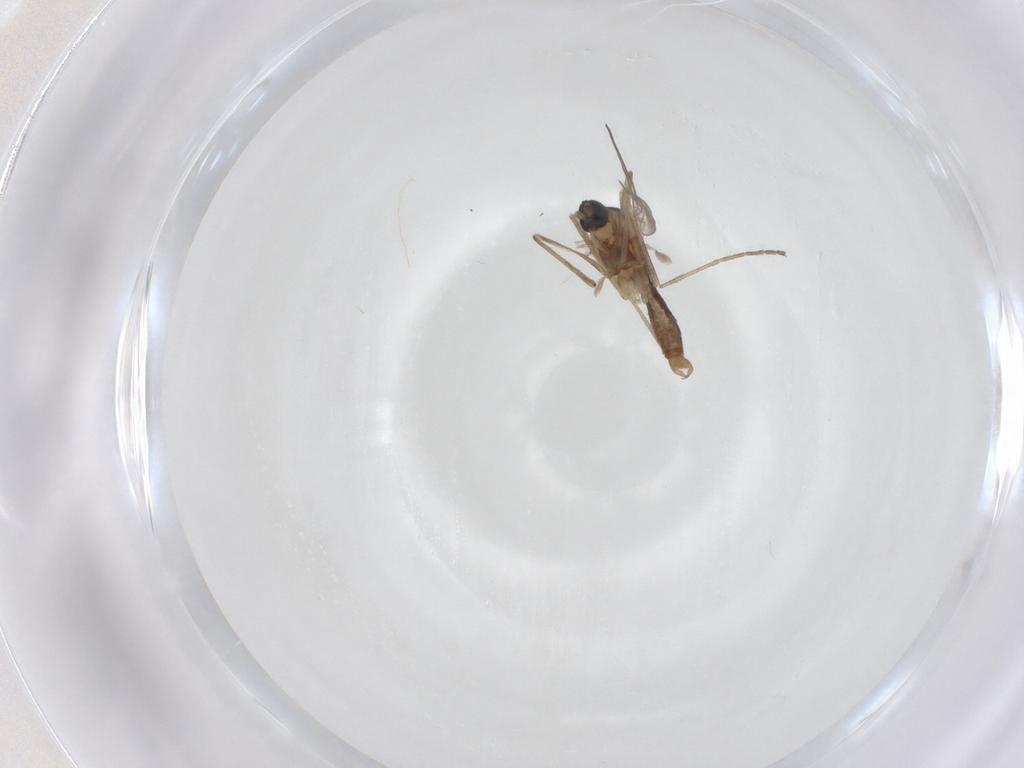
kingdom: Animalia
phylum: Arthropoda
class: Insecta
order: Diptera
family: Cecidomyiidae
